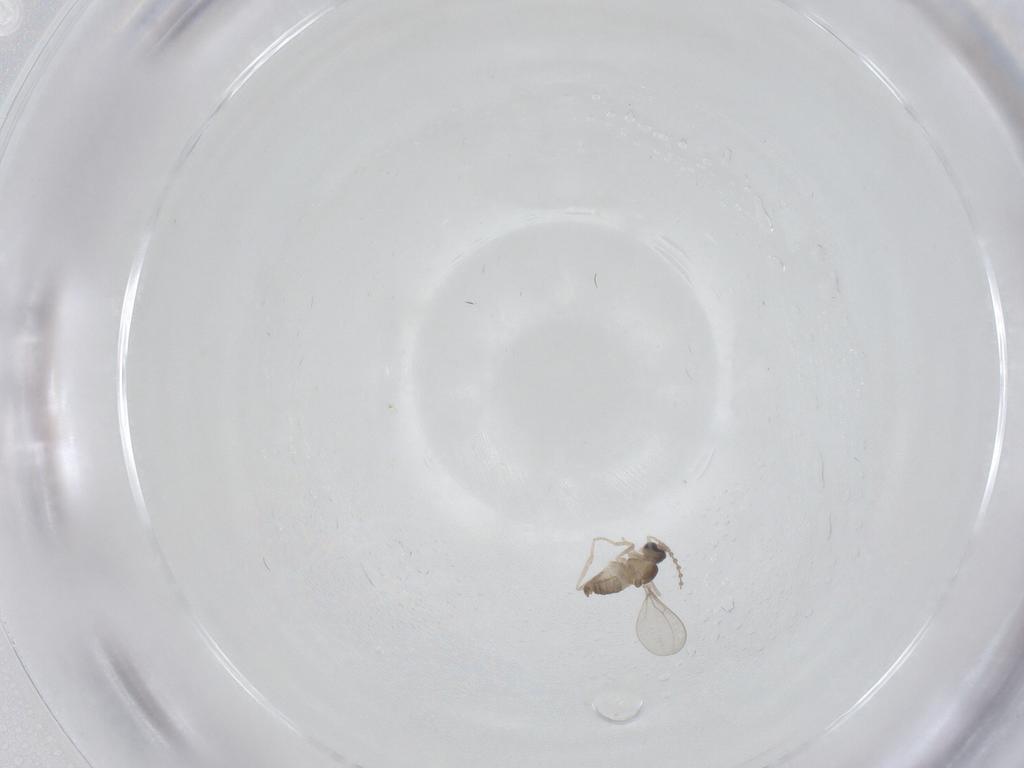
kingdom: Animalia
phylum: Arthropoda
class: Insecta
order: Diptera
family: Cecidomyiidae
